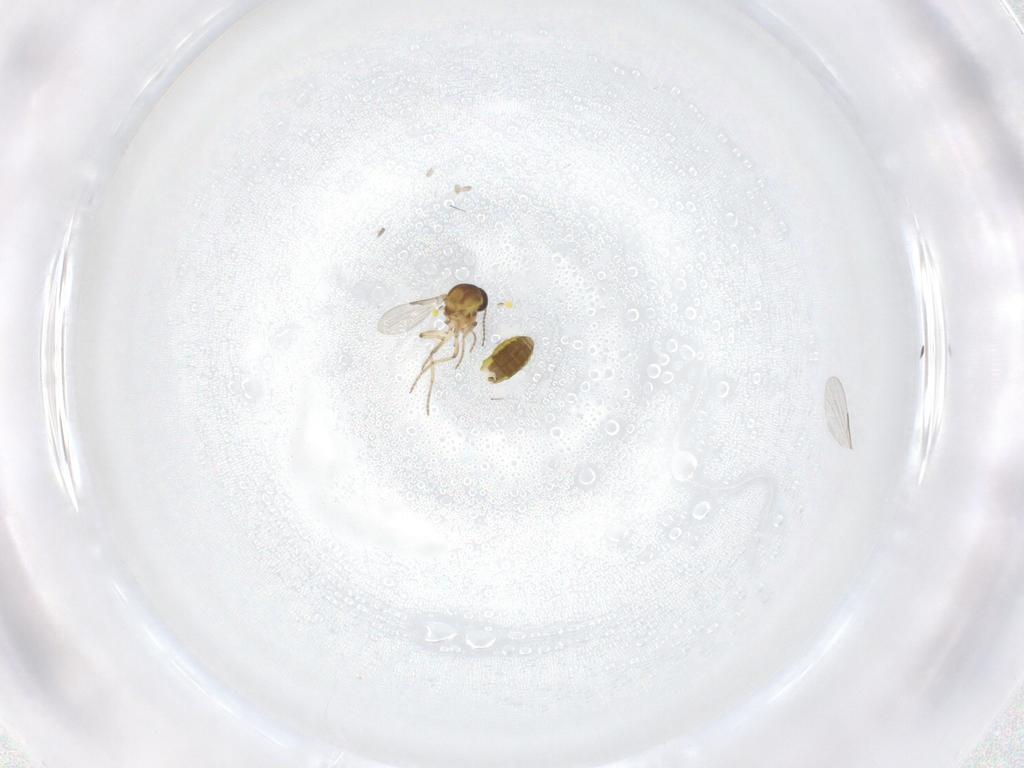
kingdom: Animalia
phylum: Arthropoda
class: Insecta
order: Diptera
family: Ceratopogonidae
